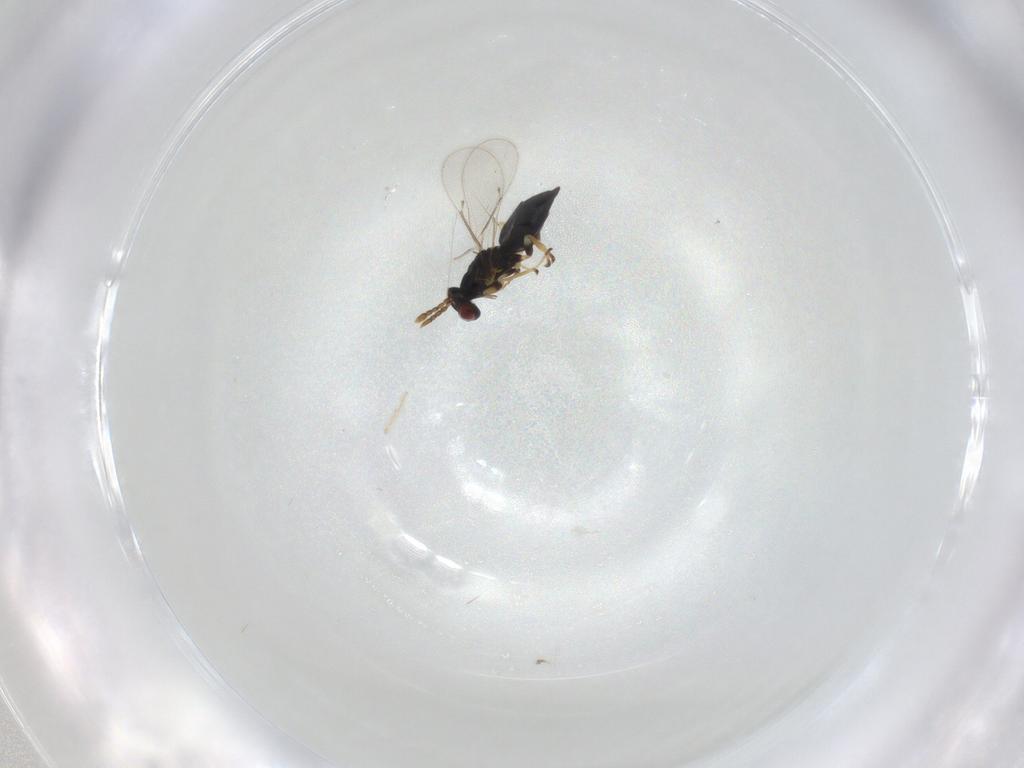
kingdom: Animalia
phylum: Arthropoda
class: Insecta
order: Hymenoptera
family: Eulophidae
